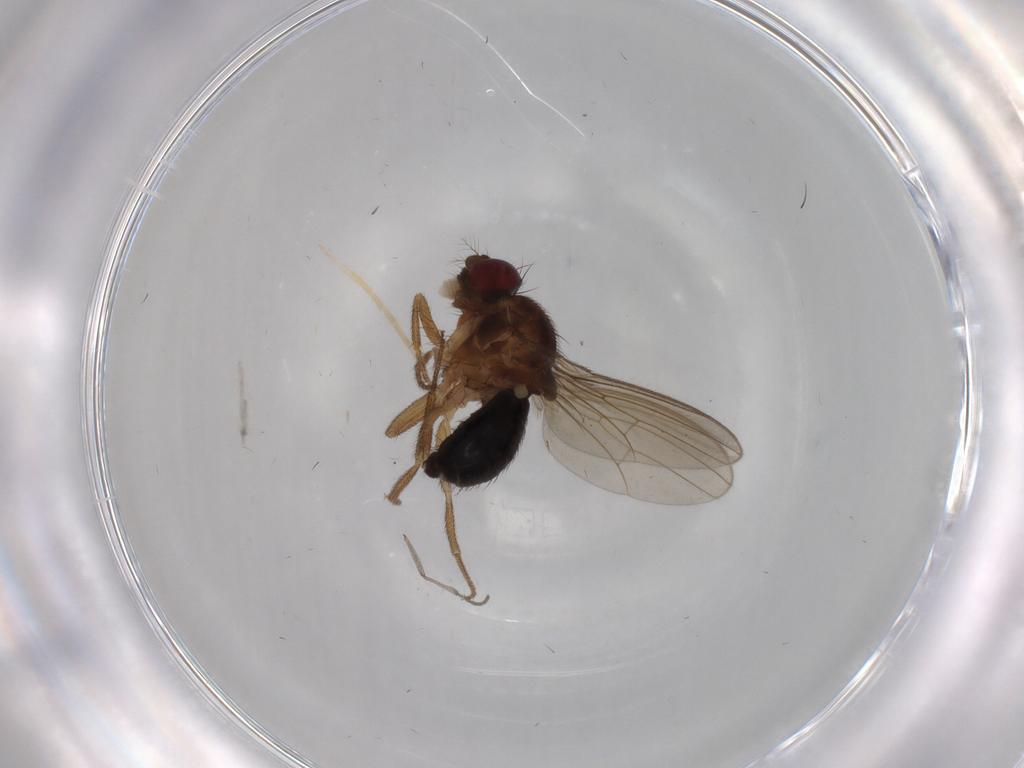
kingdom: Animalia
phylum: Arthropoda
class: Insecta
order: Diptera
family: Drosophilidae
